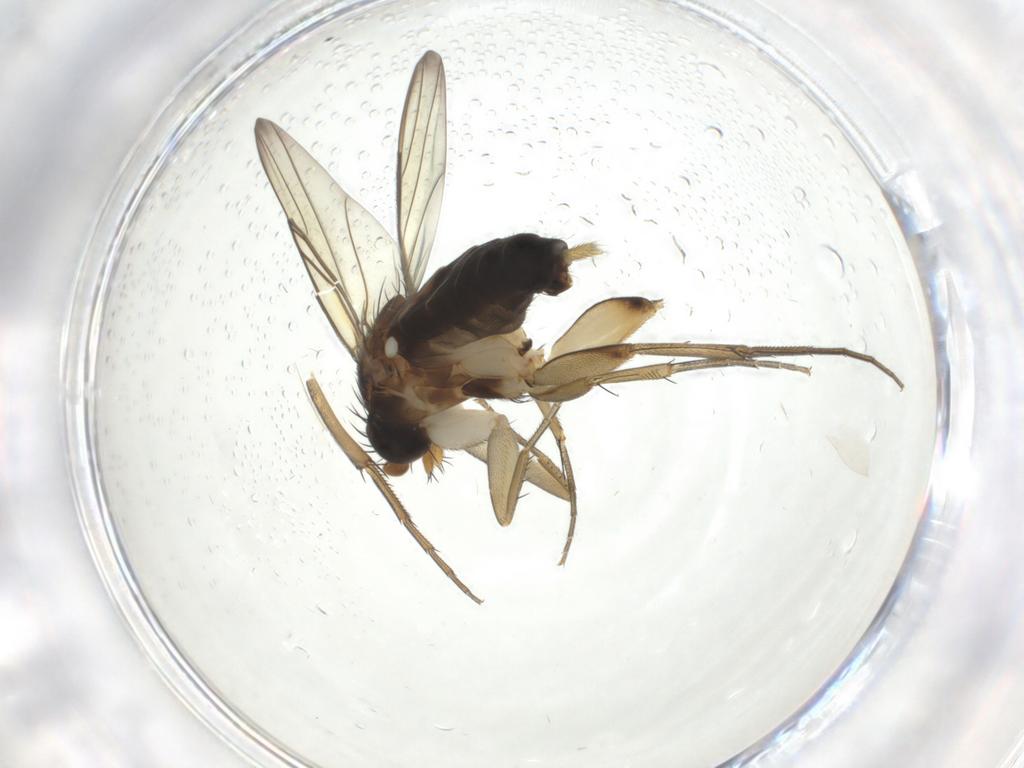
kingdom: Animalia
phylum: Arthropoda
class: Insecta
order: Diptera
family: Phoridae
